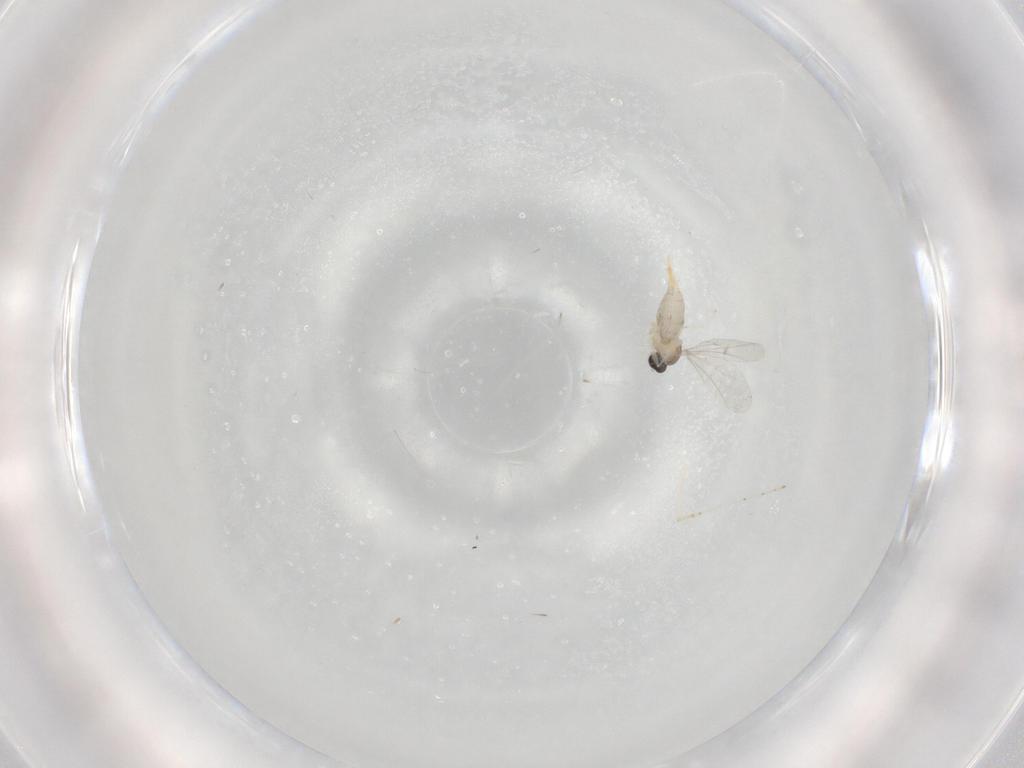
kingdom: Animalia
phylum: Arthropoda
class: Insecta
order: Diptera
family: Cecidomyiidae
